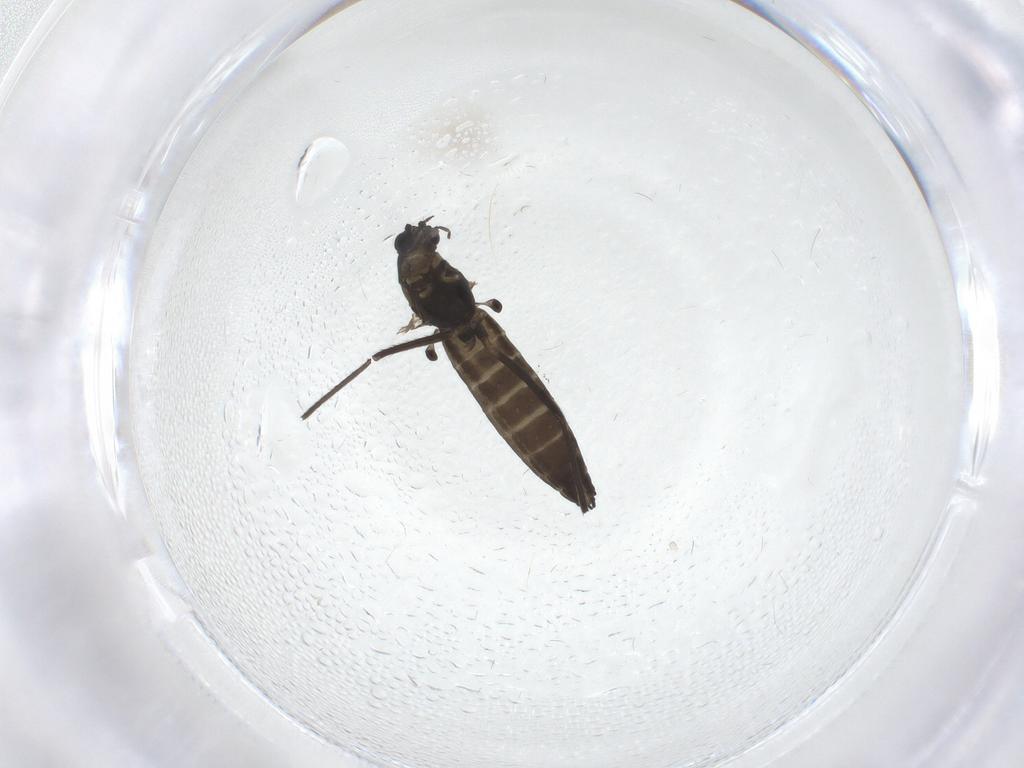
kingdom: Animalia
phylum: Arthropoda
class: Insecta
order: Diptera
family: Chironomidae
